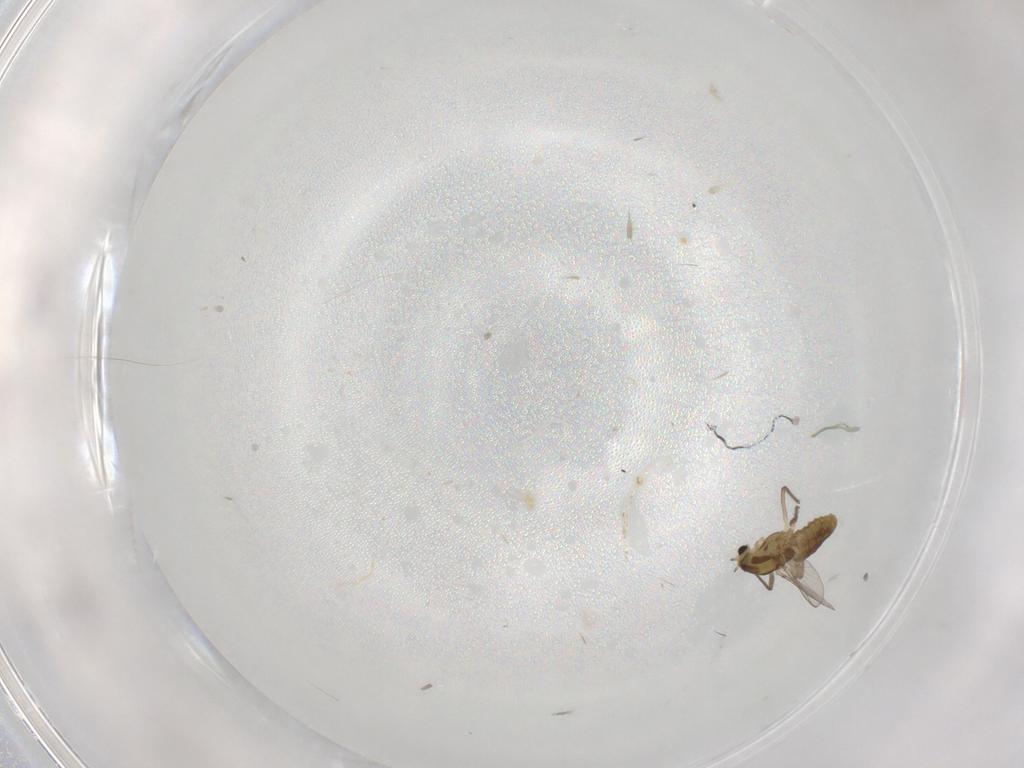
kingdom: Animalia
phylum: Arthropoda
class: Insecta
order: Diptera
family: Chironomidae
